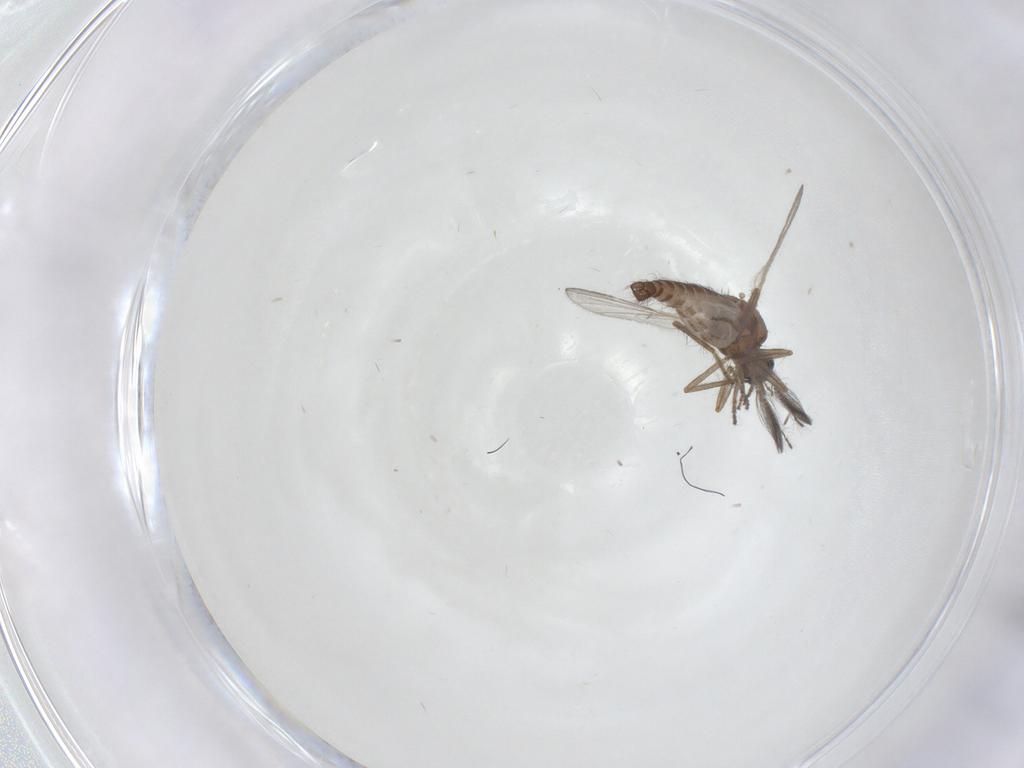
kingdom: Animalia
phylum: Arthropoda
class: Insecta
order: Diptera
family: Ceratopogonidae
